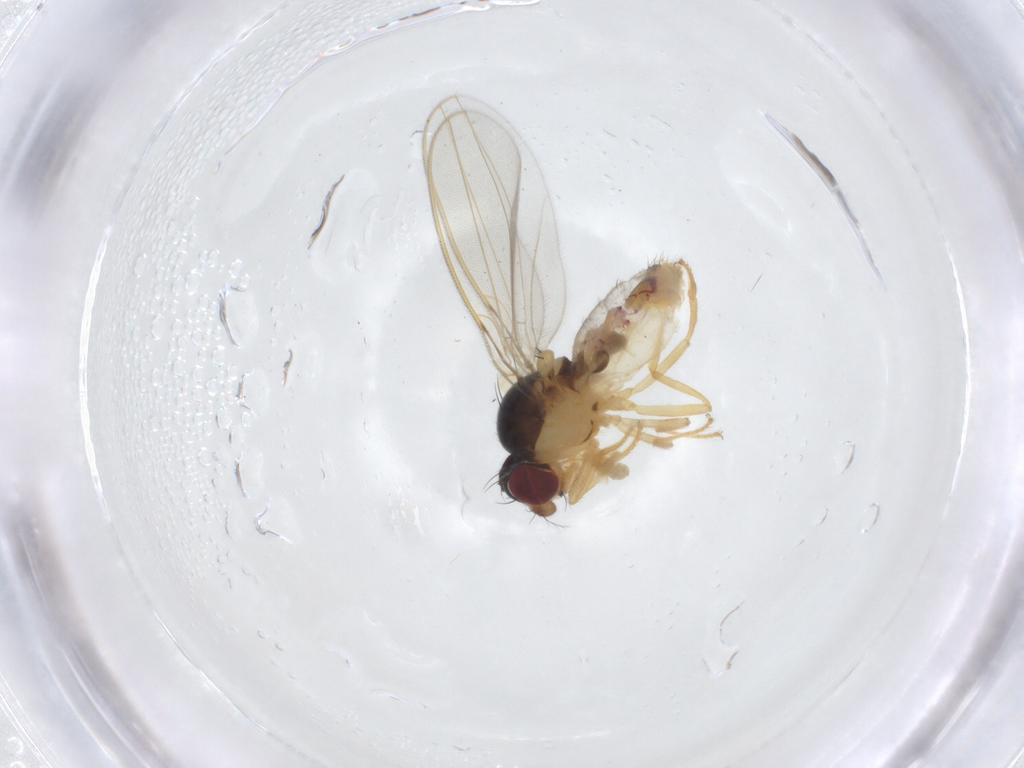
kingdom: Animalia
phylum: Arthropoda
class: Insecta
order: Diptera
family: Asteiidae
